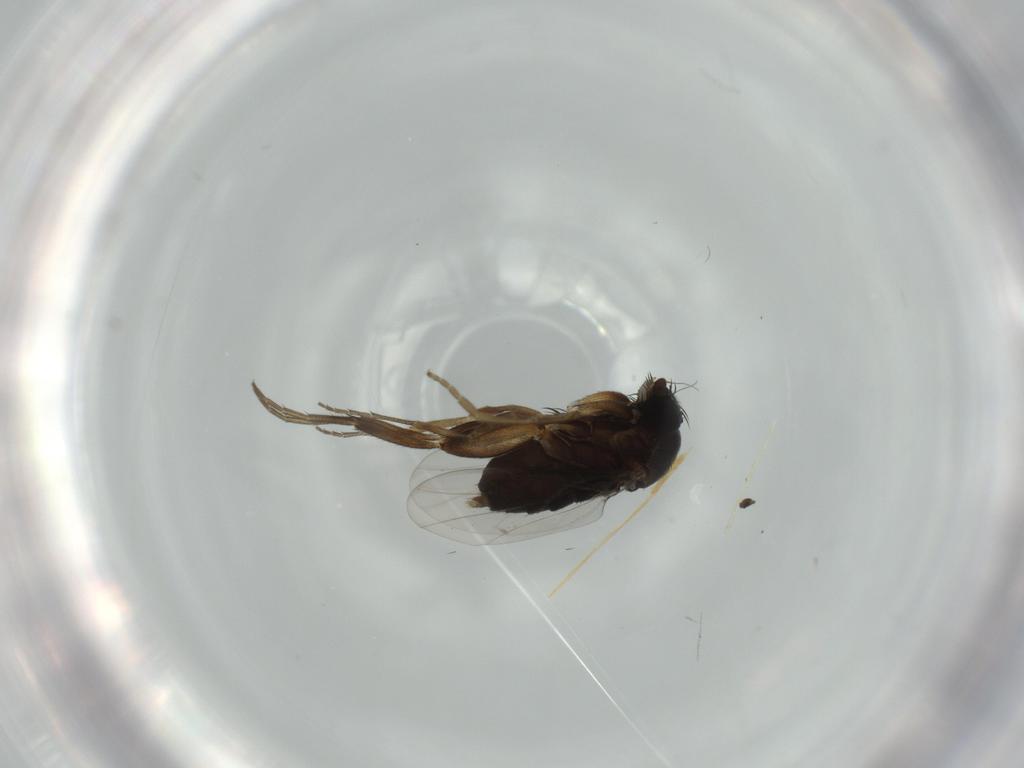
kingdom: Animalia
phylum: Arthropoda
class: Insecta
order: Diptera
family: Phoridae
